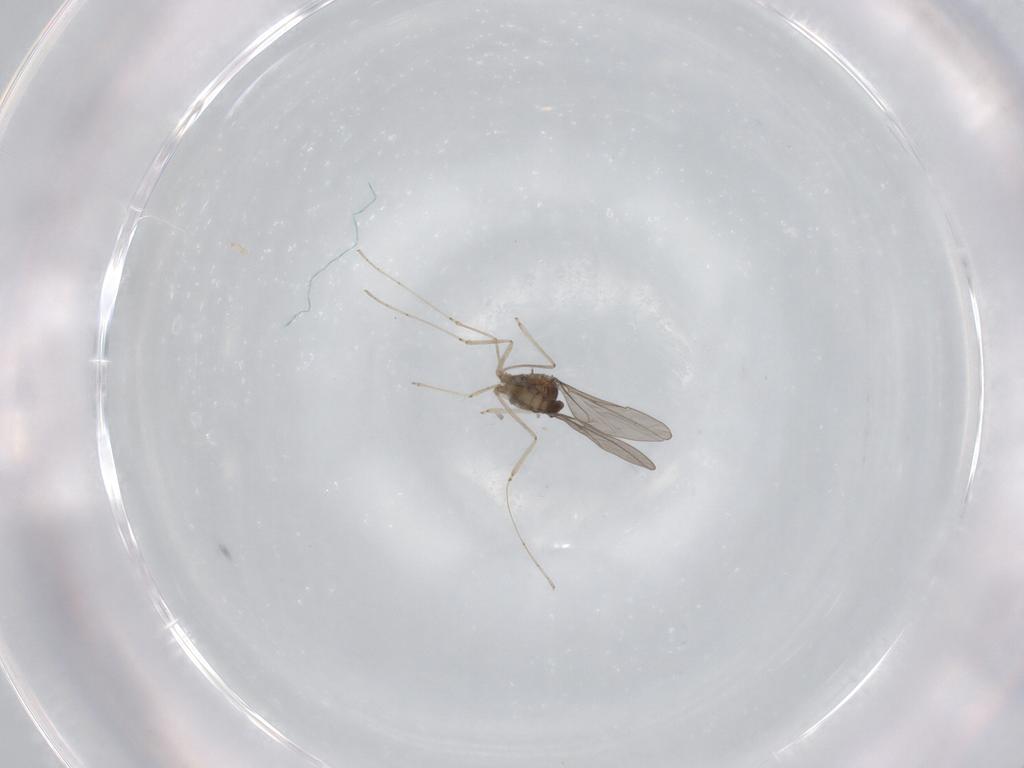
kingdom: Animalia
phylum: Arthropoda
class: Insecta
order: Diptera
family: Cecidomyiidae
